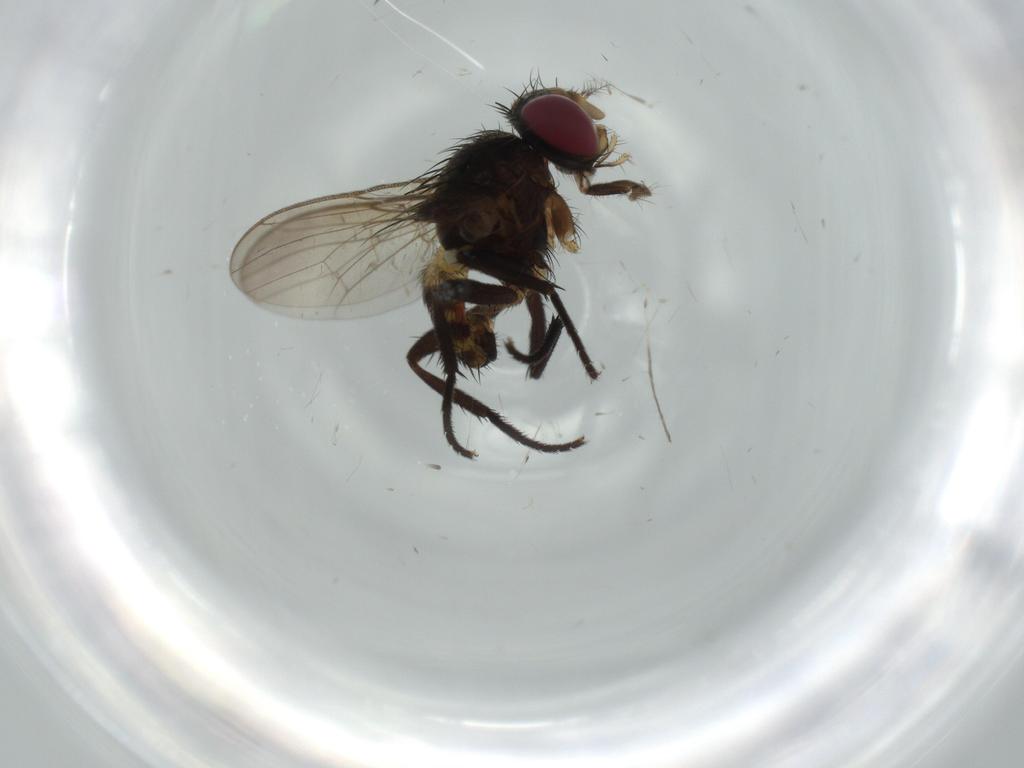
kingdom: Animalia
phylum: Arthropoda
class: Insecta
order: Diptera
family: Anthomyiidae
